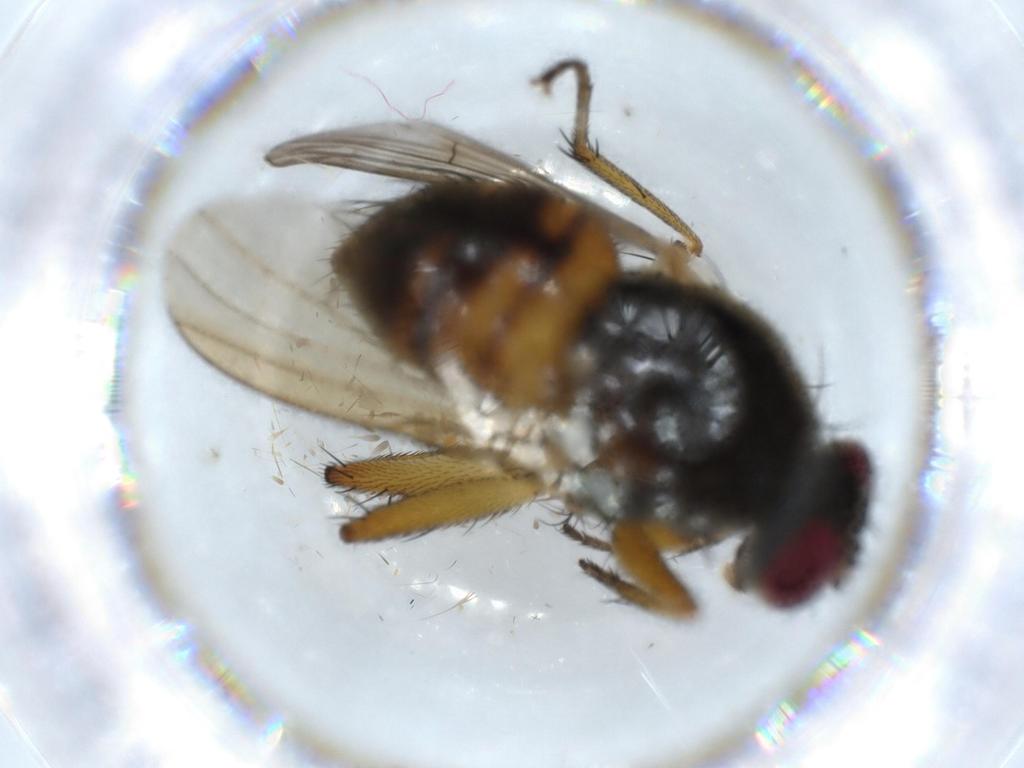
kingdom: Animalia
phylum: Arthropoda
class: Insecta
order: Diptera
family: Muscidae
